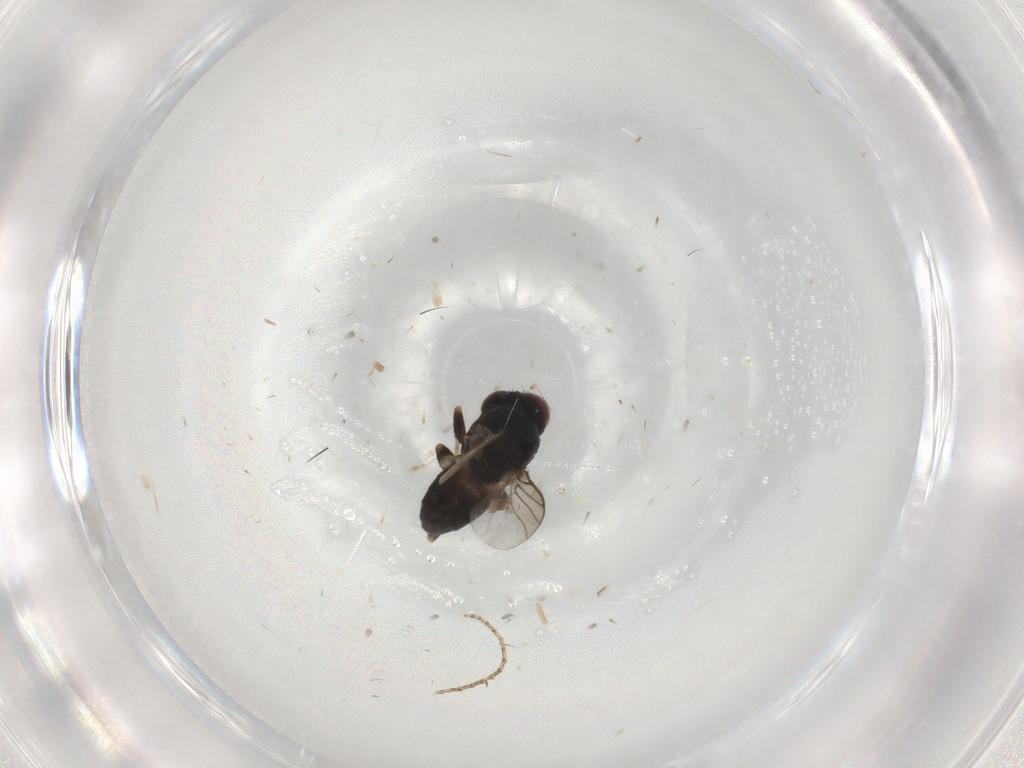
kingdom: Animalia
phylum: Arthropoda
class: Insecta
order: Diptera
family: Chloropidae
